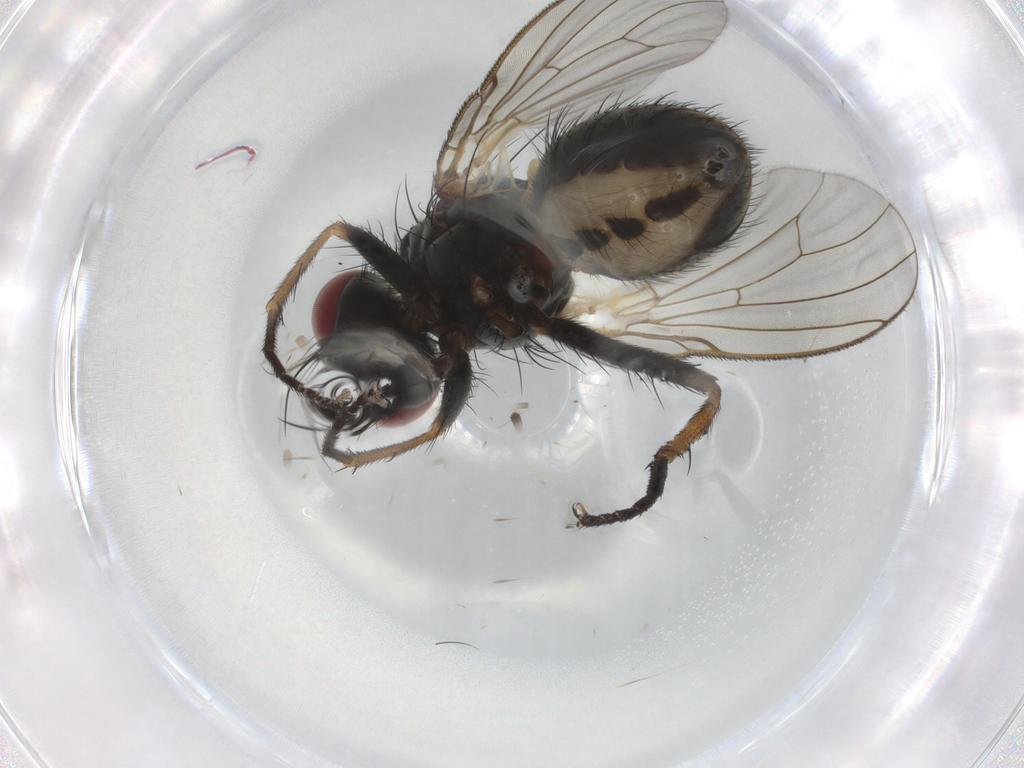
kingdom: Animalia
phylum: Arthropoda
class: Insecta
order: Diptera
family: Muscidae
